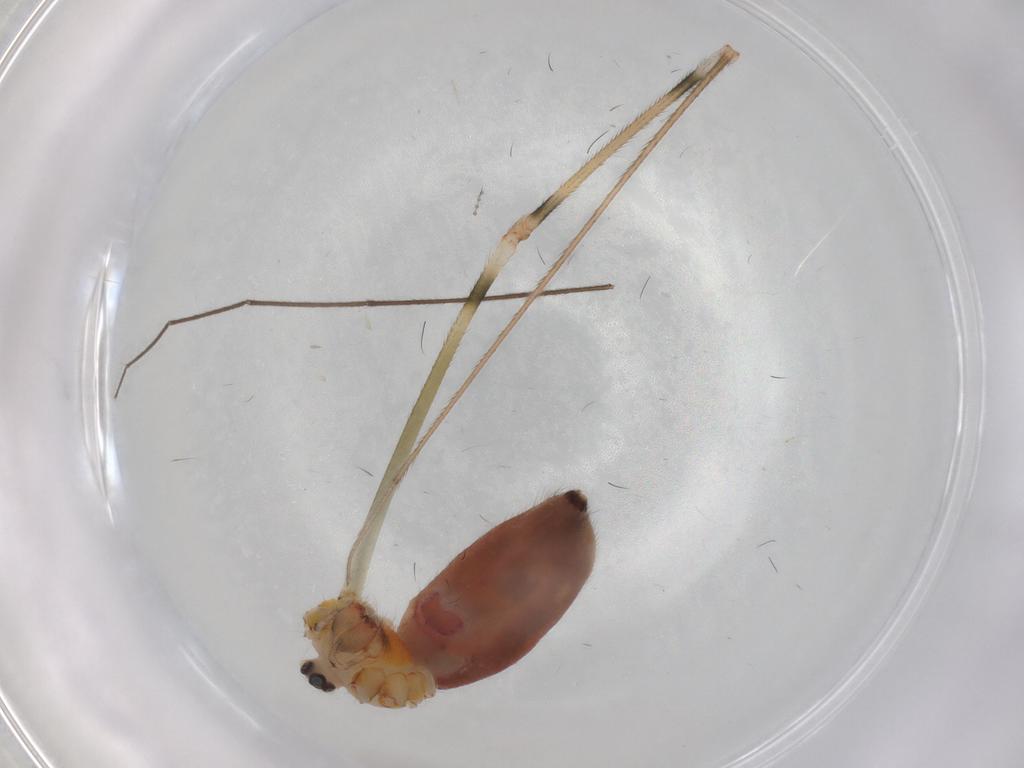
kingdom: Animalia
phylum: Arthropoda
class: Arachnida
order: Araneae
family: Pholcidae
